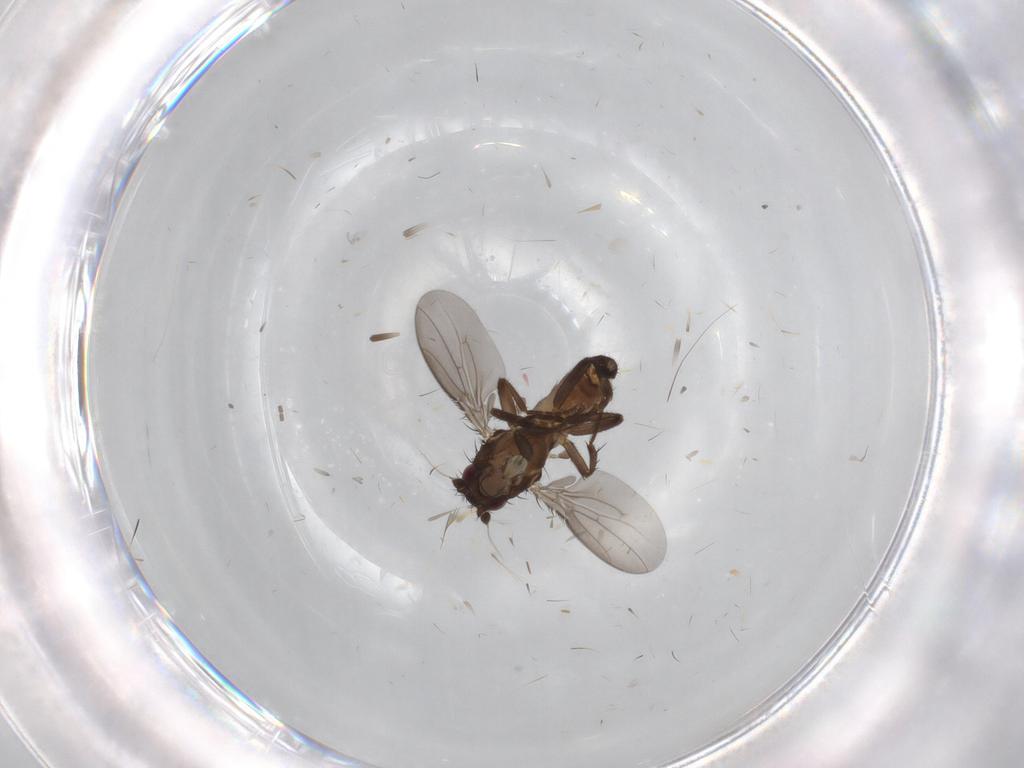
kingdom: Animalia
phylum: Arthropoda
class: Insecta
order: Diptera
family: Sphaeroceridae
